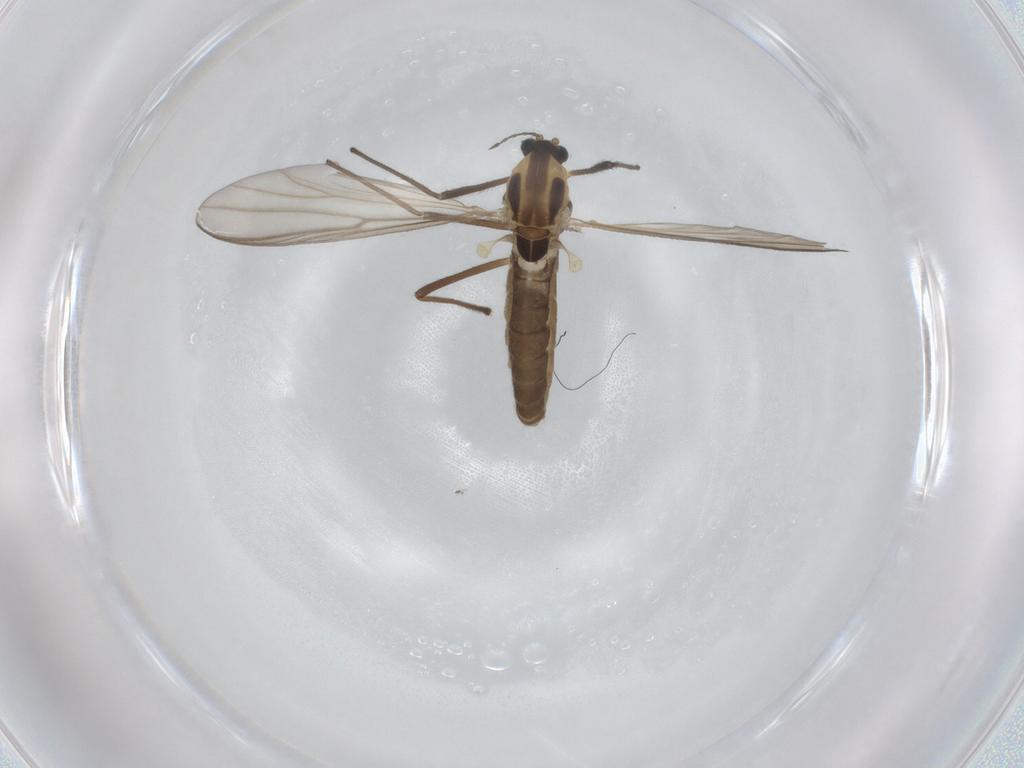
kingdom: Animalia
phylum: Arthropoda
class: Insecta
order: Diptera
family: Chironomidae
